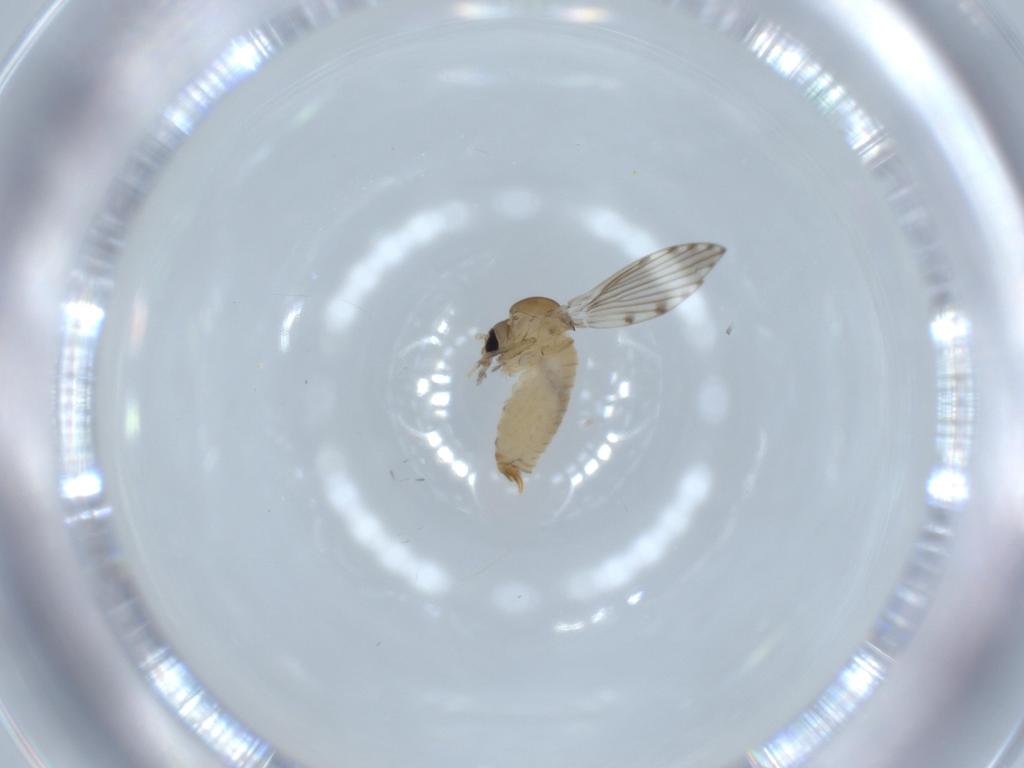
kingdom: Animalia
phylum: Arthropoda
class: Insecta
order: Diptera
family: Psychodidae
